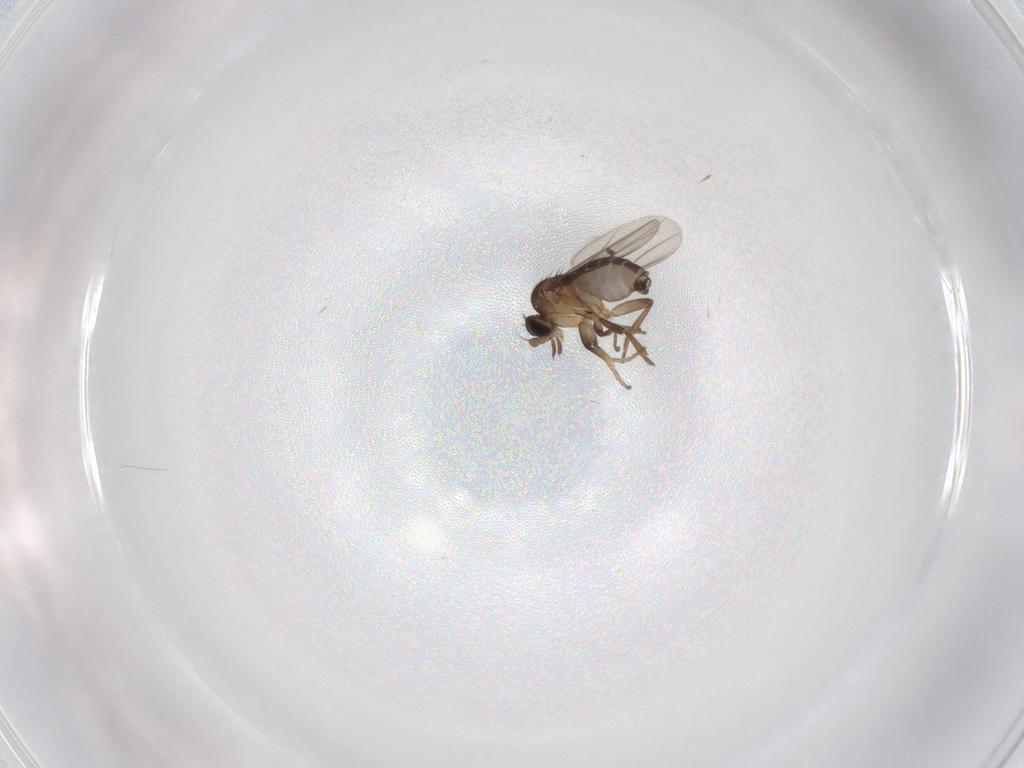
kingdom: Animalia
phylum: Arthropoda
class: Insecta
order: Diptera
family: Phoridae
